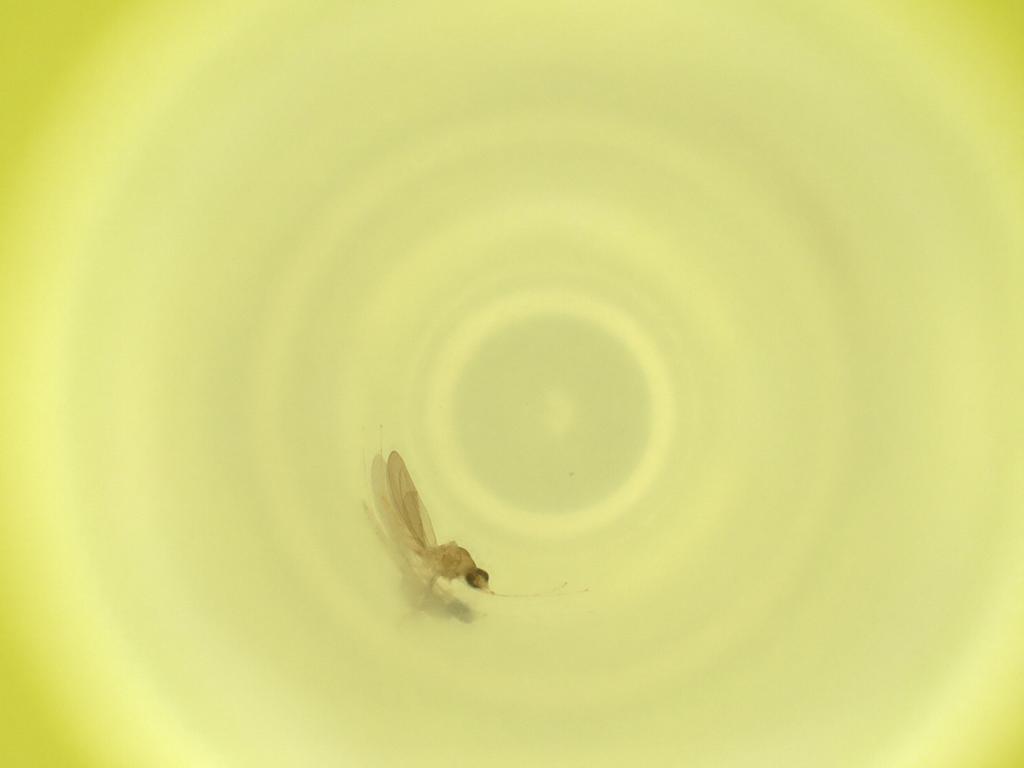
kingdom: Animalia
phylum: Arthropoda
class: Insecta
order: Diptera
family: Cecidomyiidae
